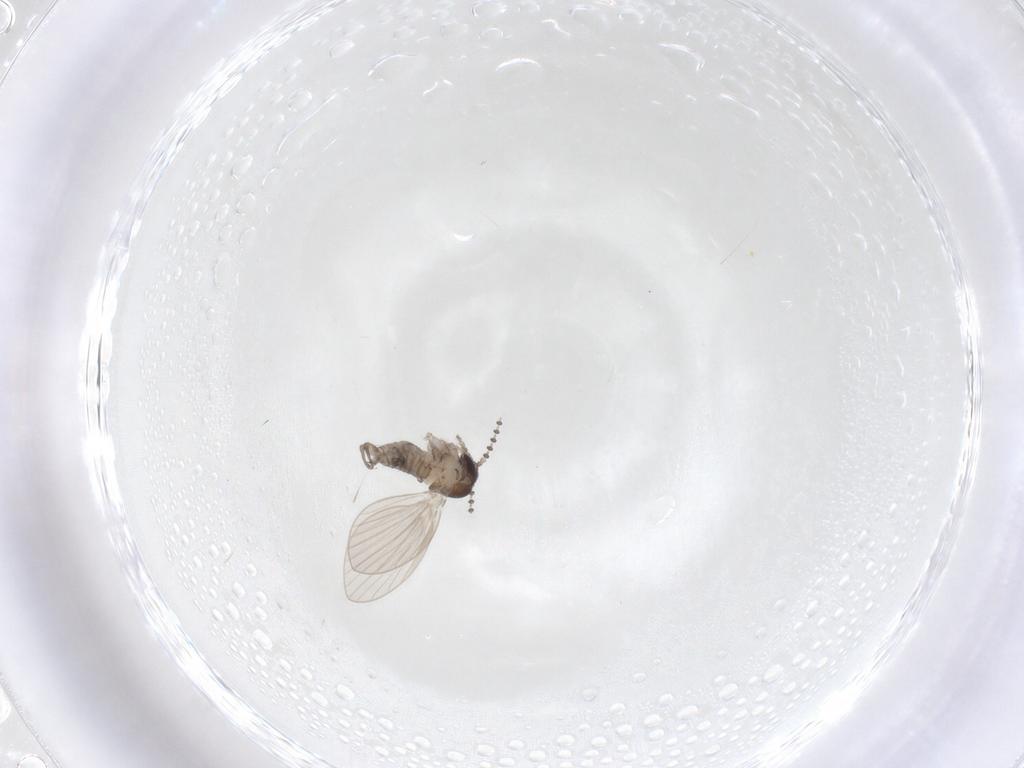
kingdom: Animalia
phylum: Arthropoda
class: Insecta
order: Diptera
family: Psychodidae
